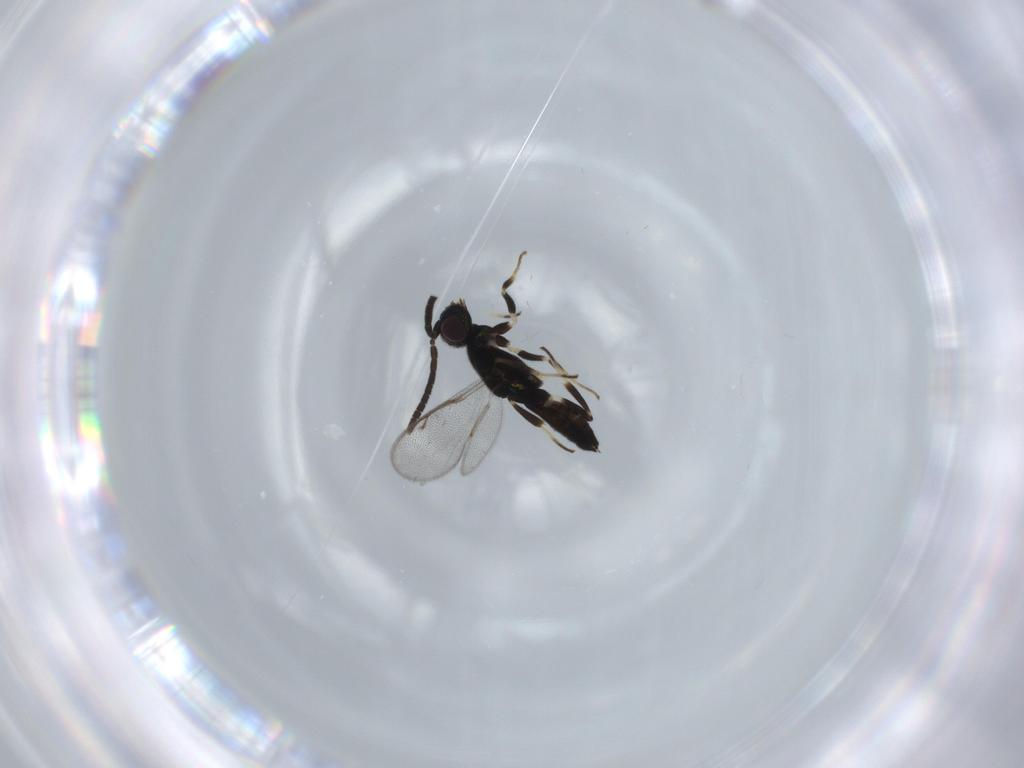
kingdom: Animalia
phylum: Arthropoda
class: Insecta
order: Hymenoptera
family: Eupelmidae
